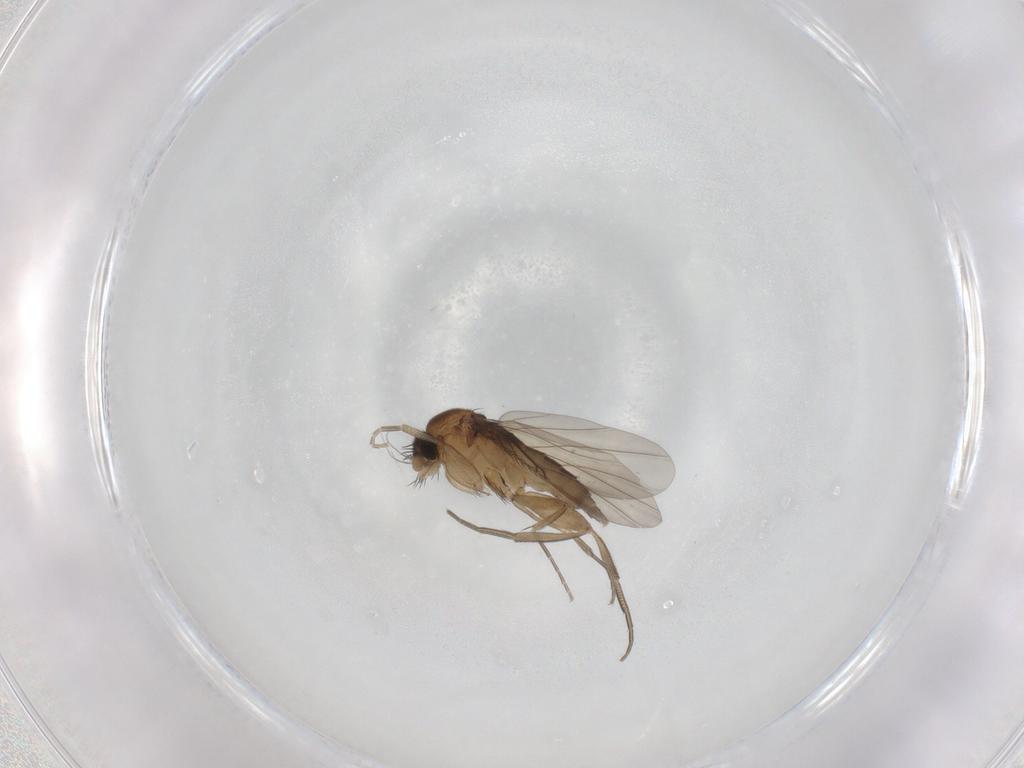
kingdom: Animalia
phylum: Arthropoda
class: Insecta
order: Diptera
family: Phoridae
